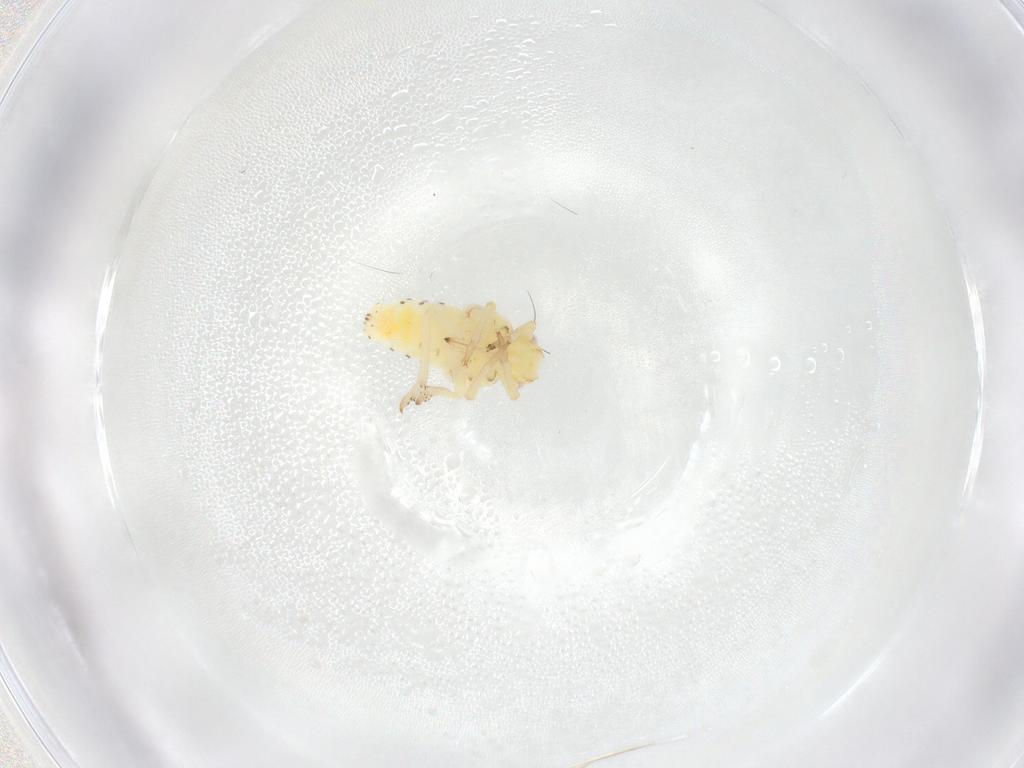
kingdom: Animalia
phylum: Arthropoda
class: Insecta
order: Hemiptera
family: Tropiduchidae
